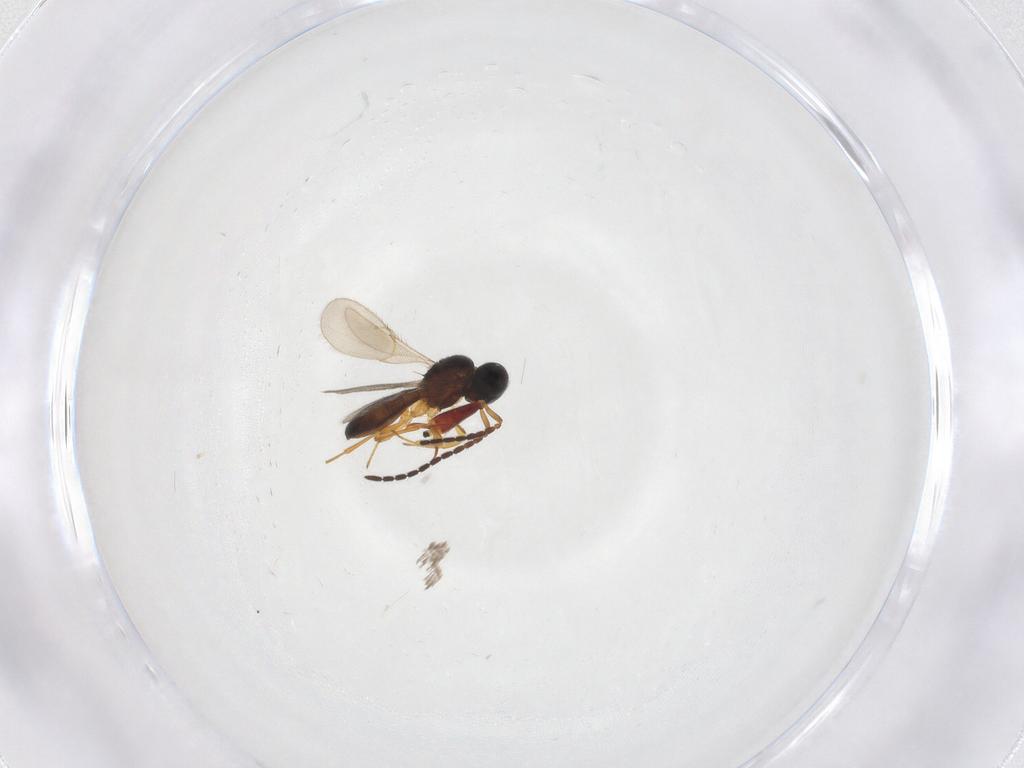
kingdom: Animalia
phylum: Arthropoda
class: Insecta
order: Hymenoptera
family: Formicidae
